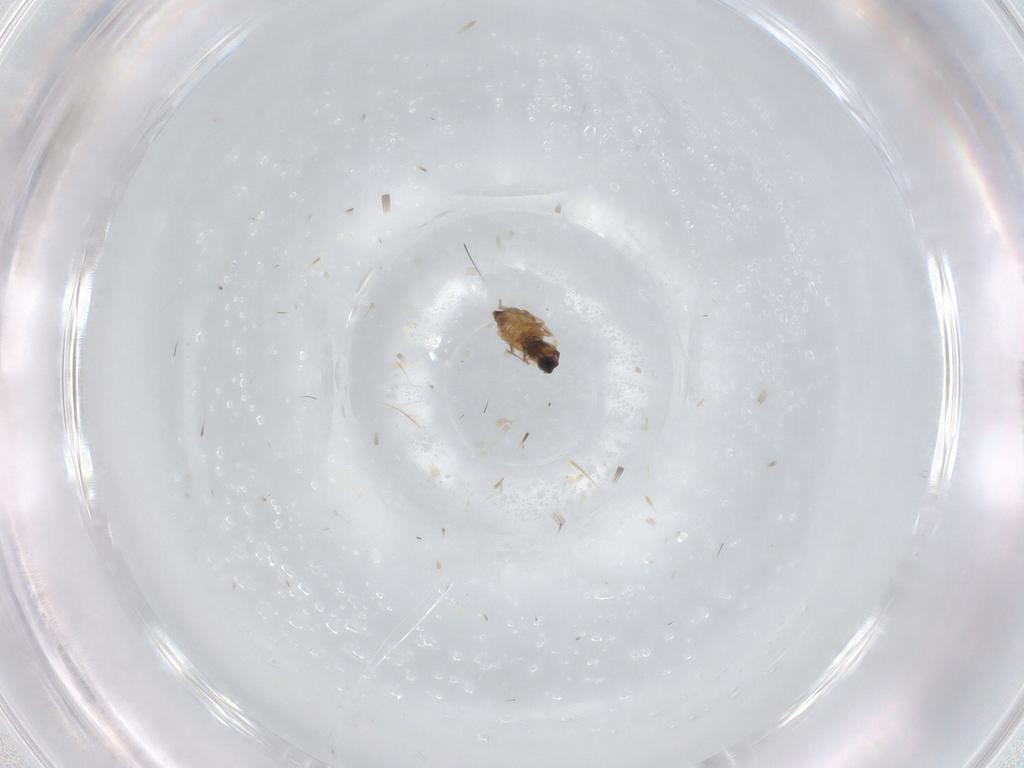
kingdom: Animalia
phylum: Arthropoda
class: Insecta
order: Diptera
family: Cecidomyiidae
